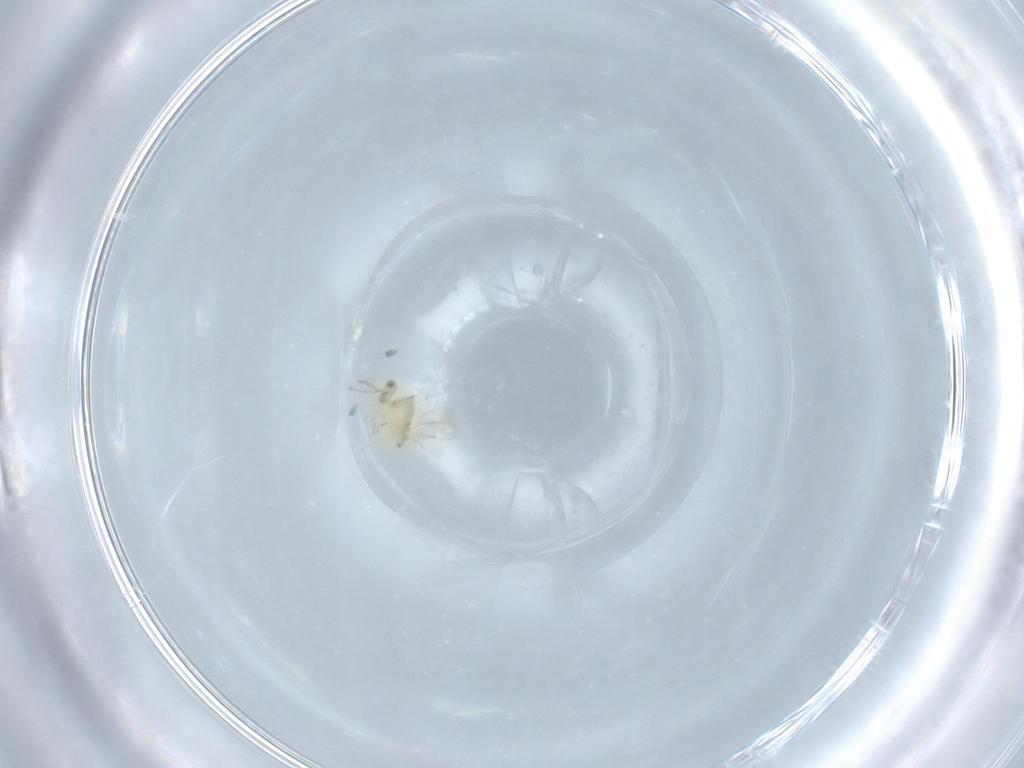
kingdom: Animalia
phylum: Arthropoda
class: Insecta
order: Hymenoptera
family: Aphelinidae
